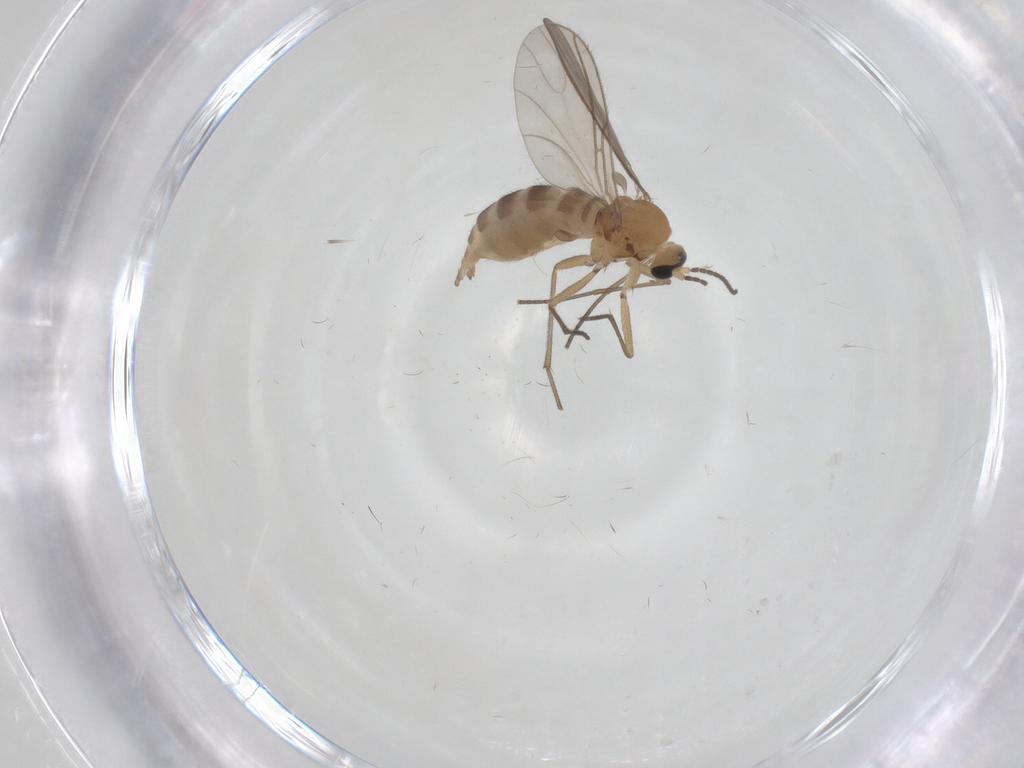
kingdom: Animalia
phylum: Arthropoda
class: Insecta
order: Diptera
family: Sciaridae
